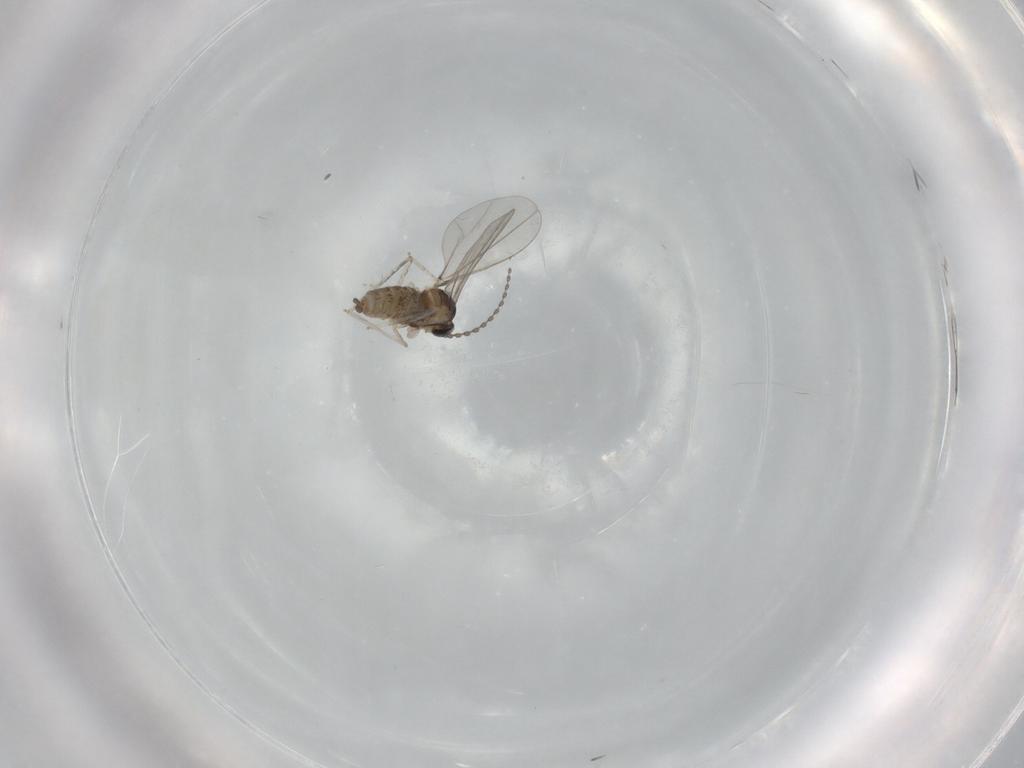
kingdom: Animalia
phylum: Arthropoda
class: Insecta
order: Diptera
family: Cecidomyiidae
